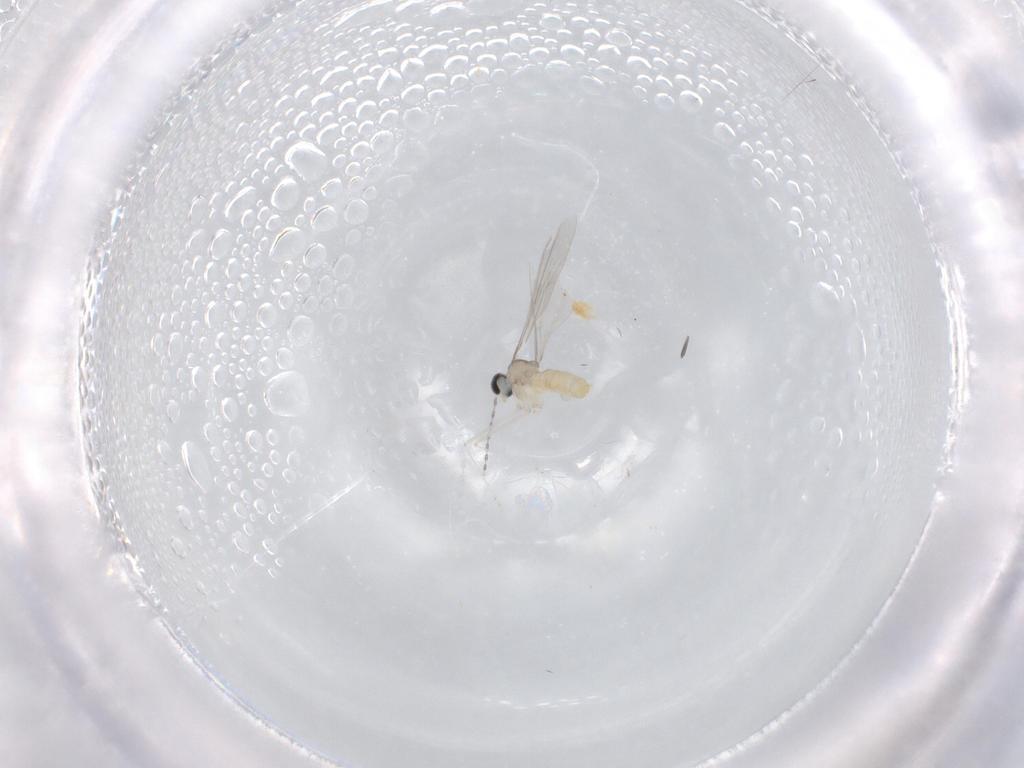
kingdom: Animalia
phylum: Arthropoda
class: Insecta
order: Diptera
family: Cecidomyiidae
